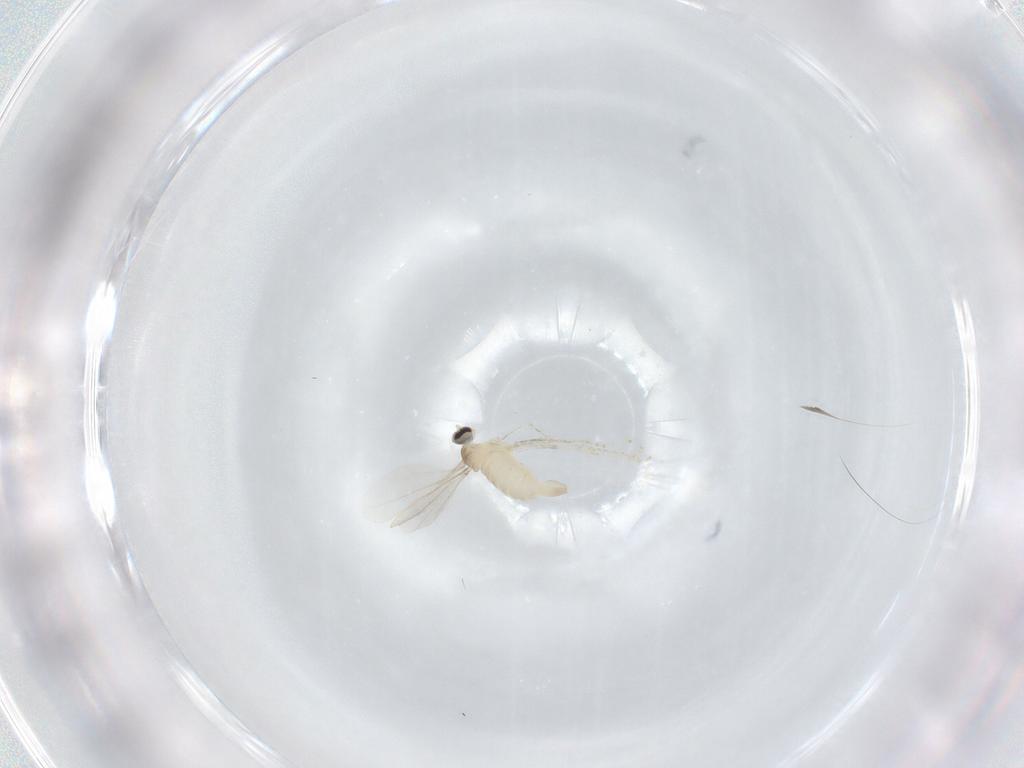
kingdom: Animalia
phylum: Arthropoda
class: Insecta
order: Diptera
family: Cecidomyiidae
